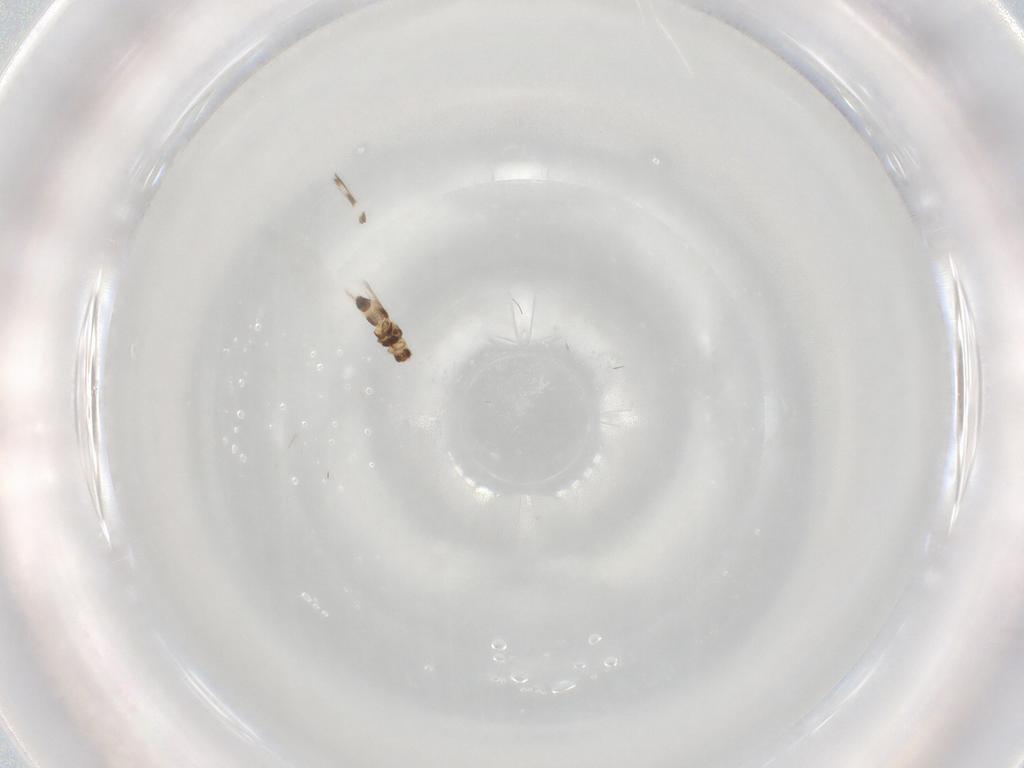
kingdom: Animalia
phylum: Arthropoda
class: Insecta
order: Thysanoptera
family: Thripidae
